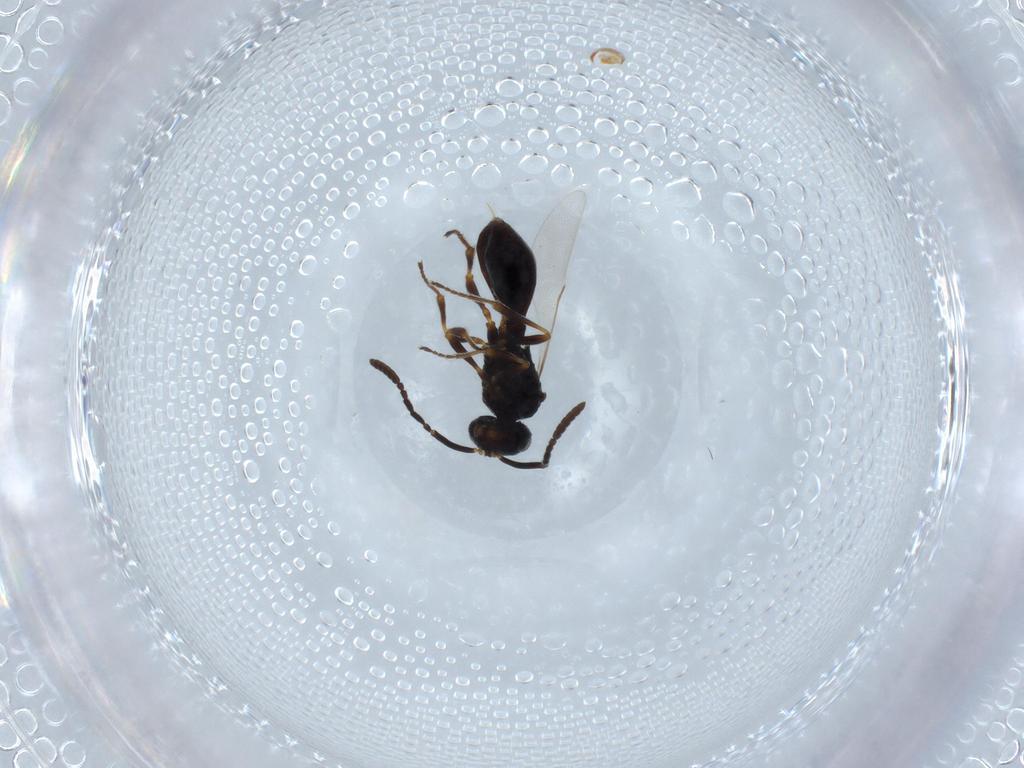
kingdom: Animalia
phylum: Arthropoda
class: Insecta
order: Hymenoptera
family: Scelionidae
